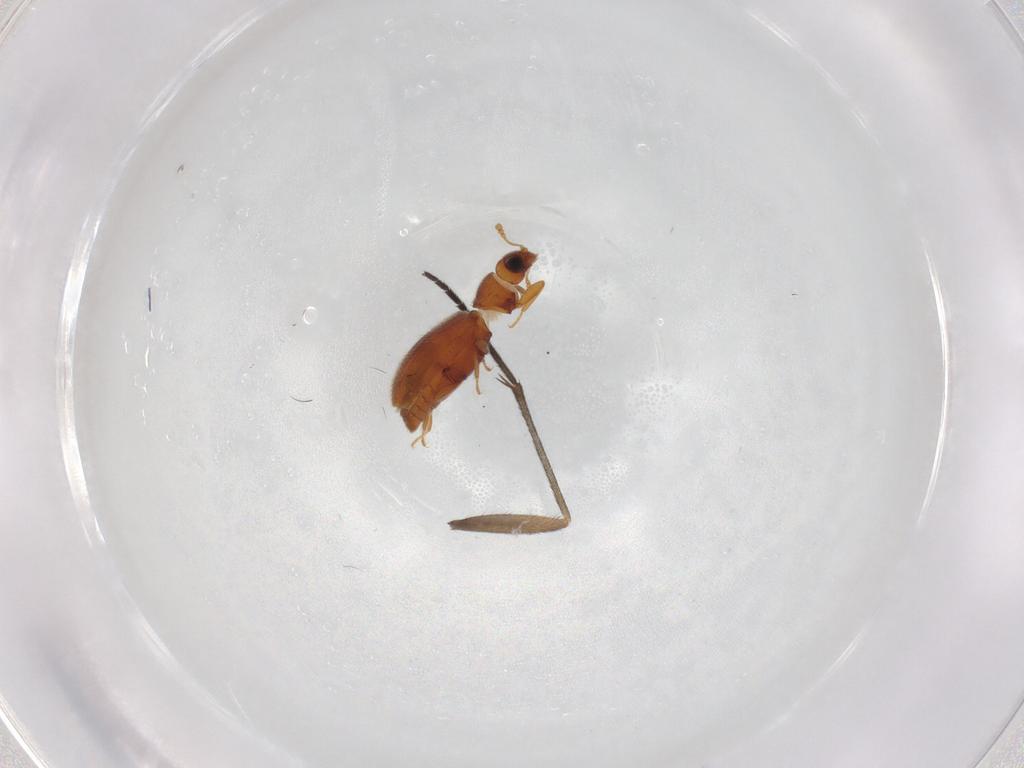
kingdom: Animalia
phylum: Arthropoda
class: Insecta
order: Coleoptera
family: Latridiidae
